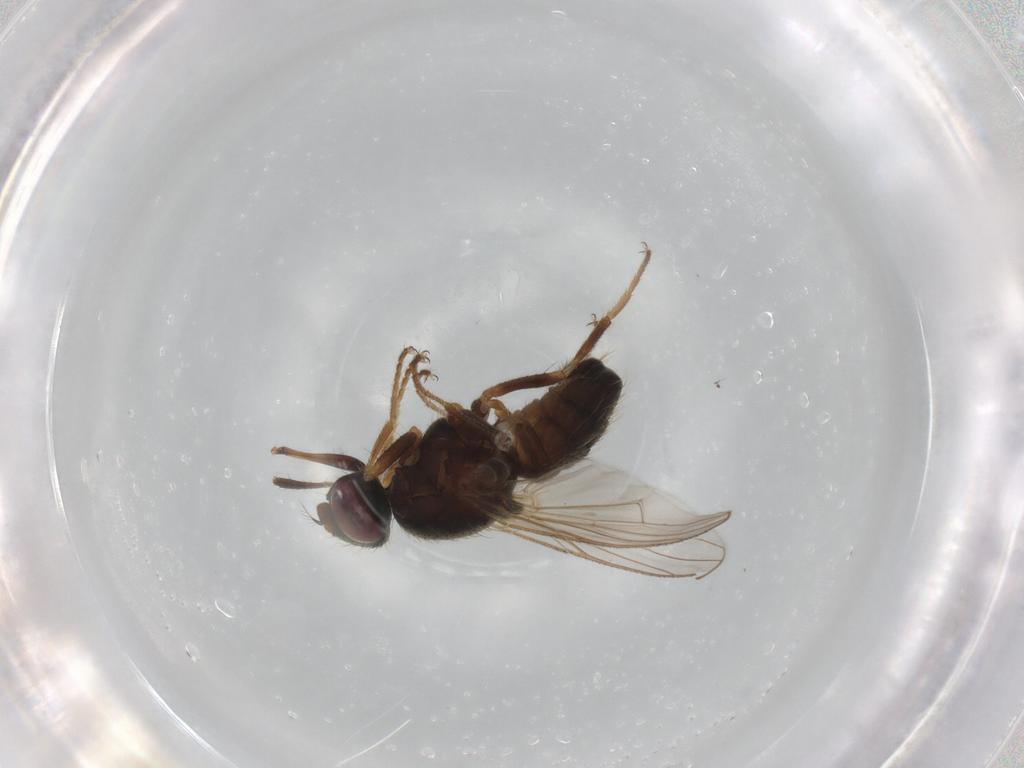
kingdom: Animalia
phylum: Arthropoda
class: Insecta
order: Diptera
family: Muscidae
